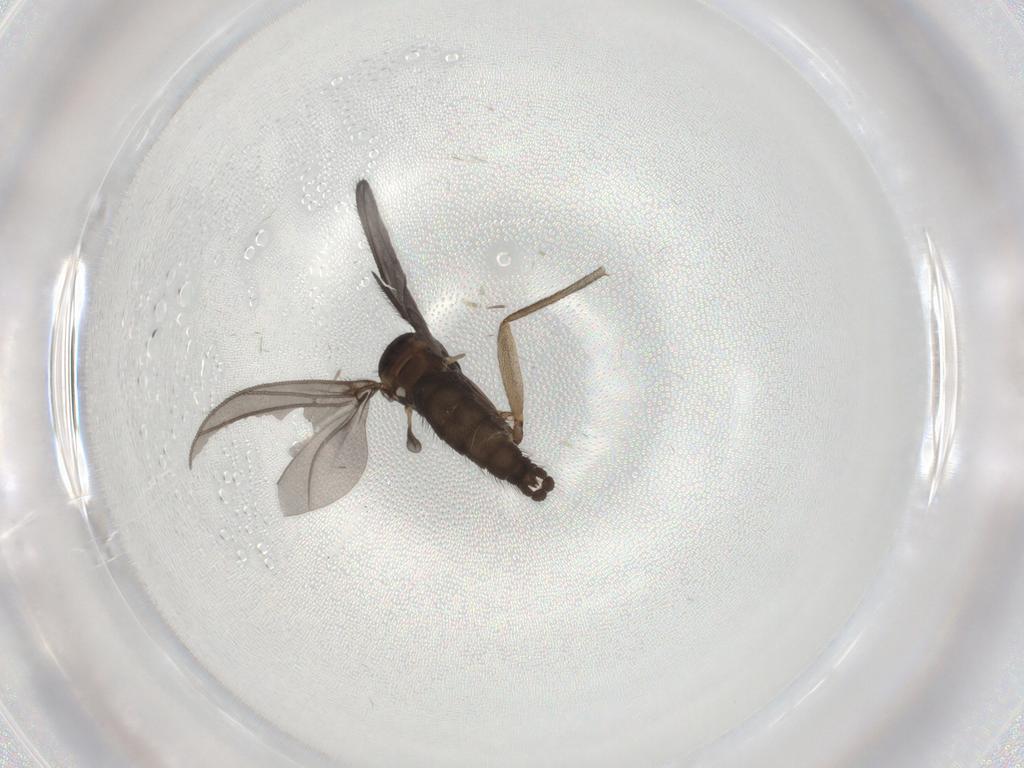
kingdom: Animalia
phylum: Arthropoda
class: Insecta
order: Diptera
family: Sciaridae
